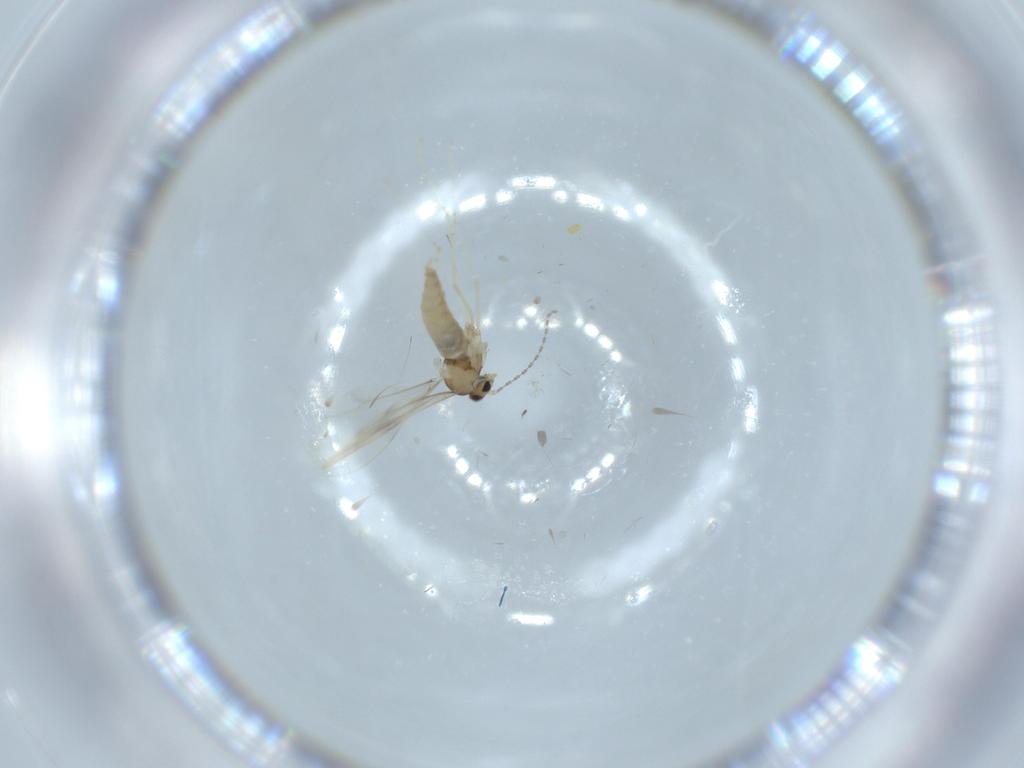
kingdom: Animalia
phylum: Arthropoda
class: Insecta
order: Diptera
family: Cecidomyiidae
